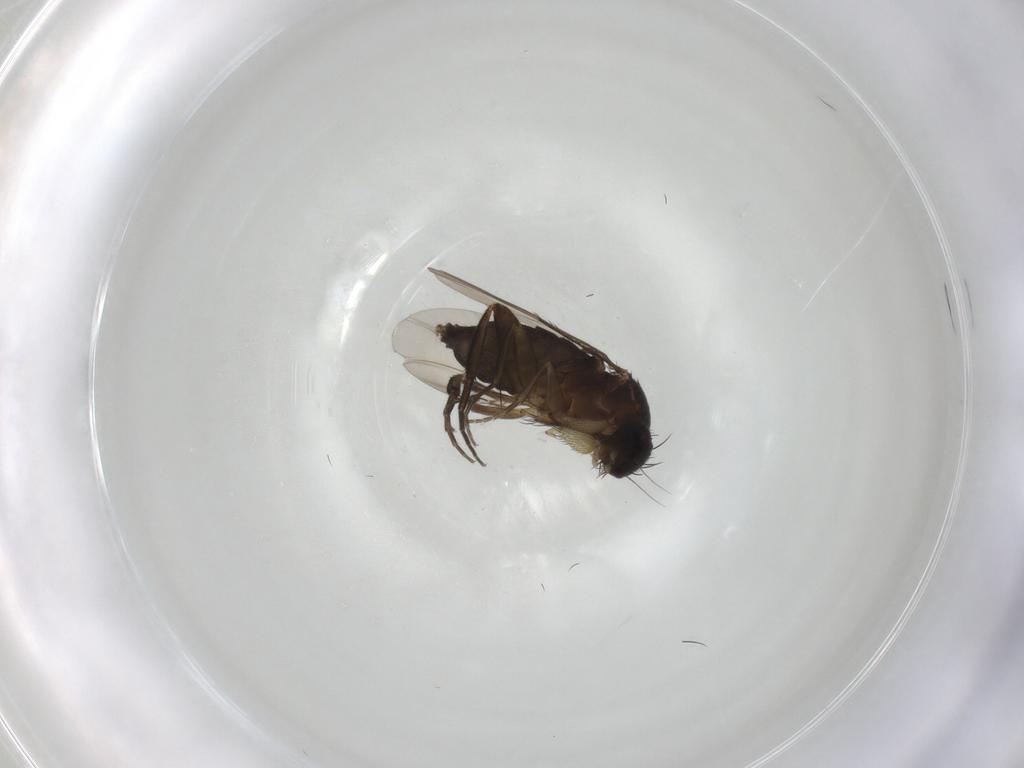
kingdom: Animalia
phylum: Arthropoda
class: Insecta
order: Diptera
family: Phoridae
